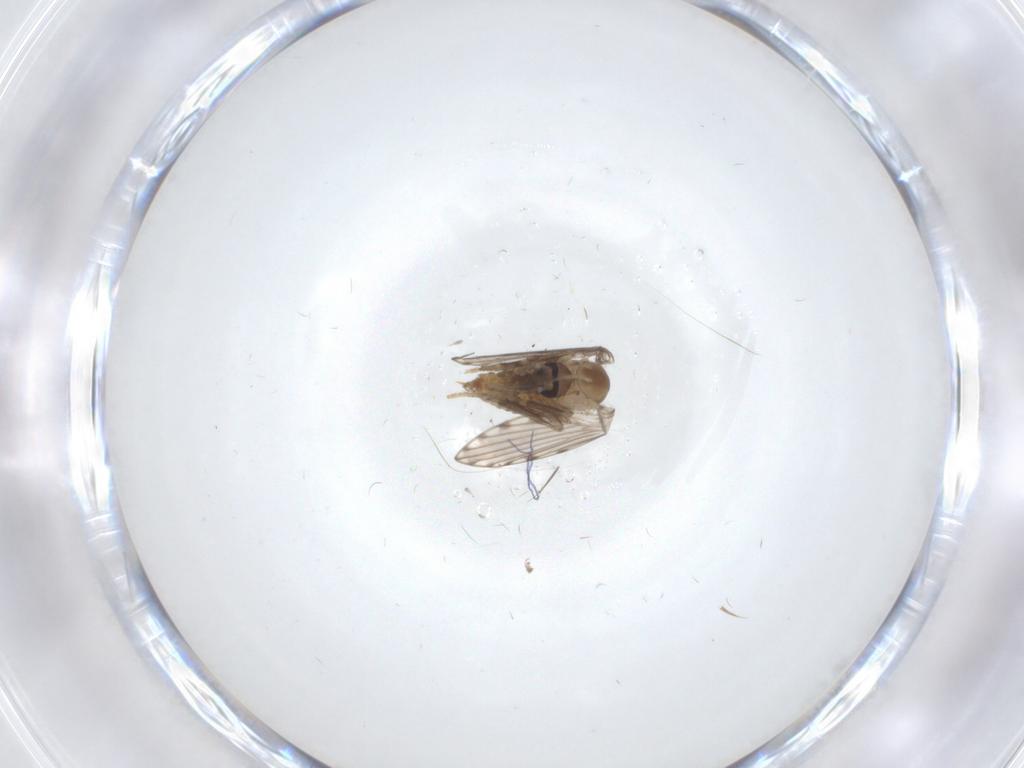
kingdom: Animalia
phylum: Arthropoda
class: Insecta
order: Diptera
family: Psychodidae
